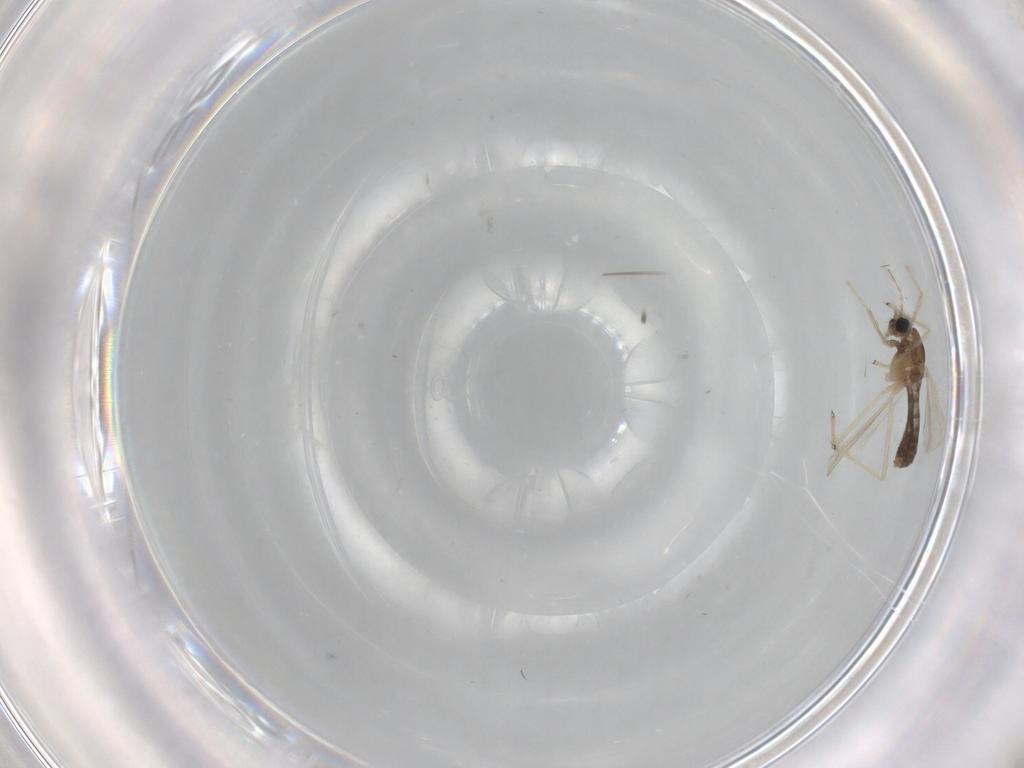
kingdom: Animalia
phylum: Arthropoda
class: Insecta
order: Diptera
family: Chironomidae
